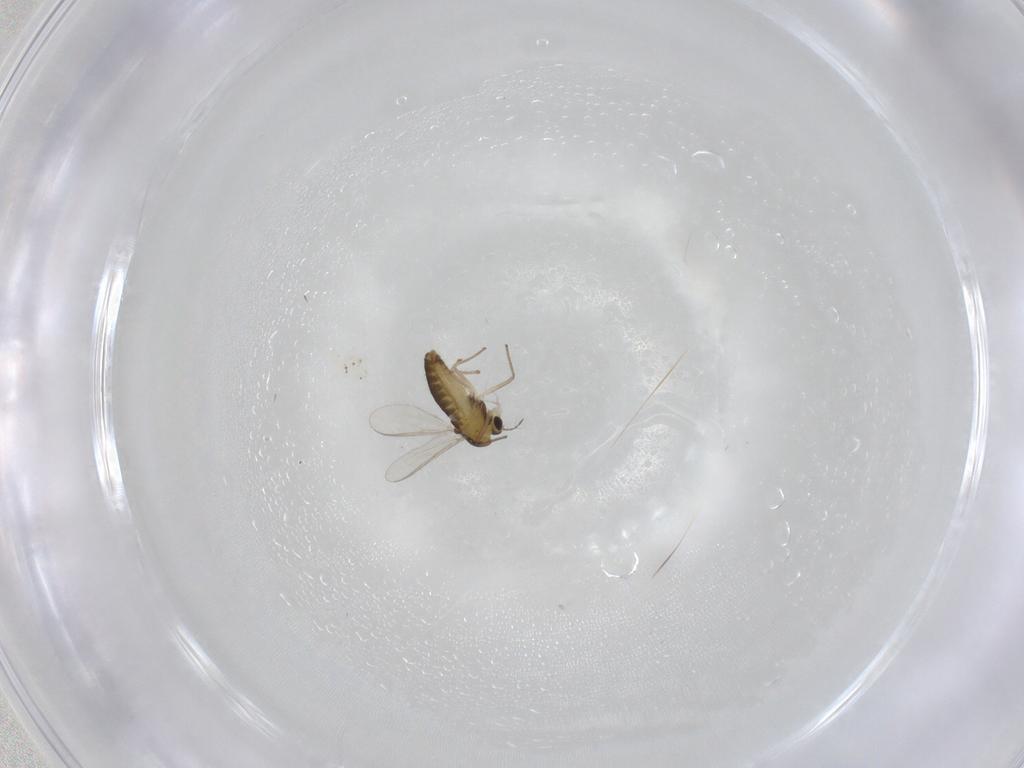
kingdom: Animalia
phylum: Arthropoda
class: Insecta
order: Diptera
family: Chironomidae
